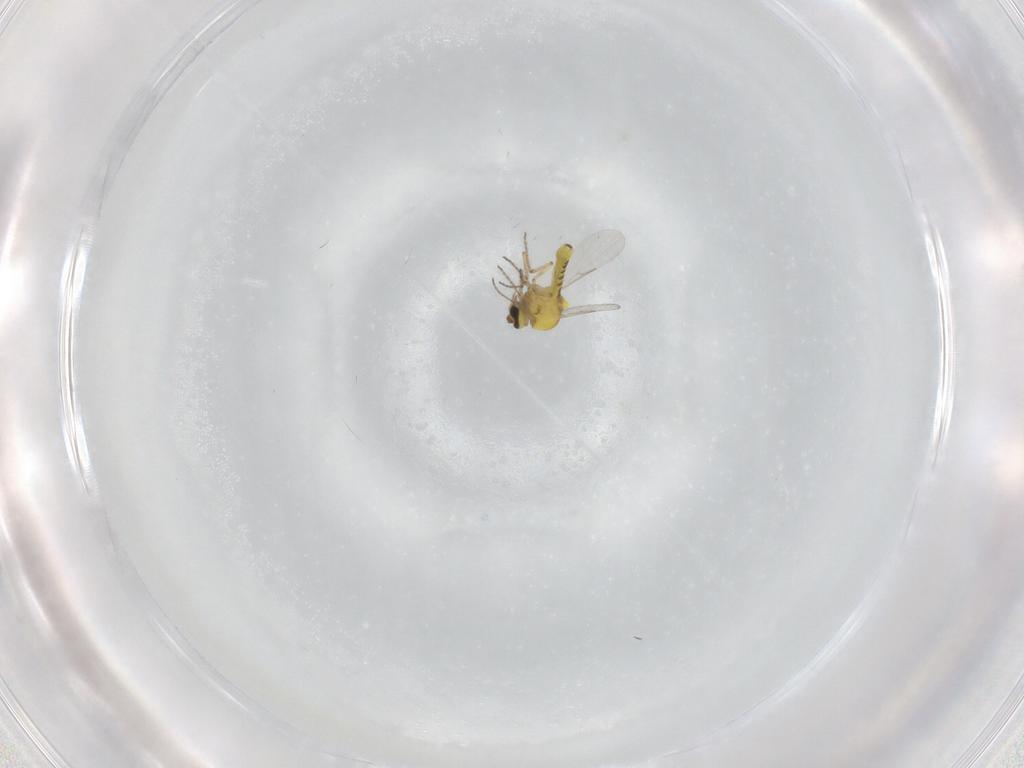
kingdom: Animalia
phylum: Arthropoda
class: Insecta
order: Diptera
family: Ceratopogonidae
